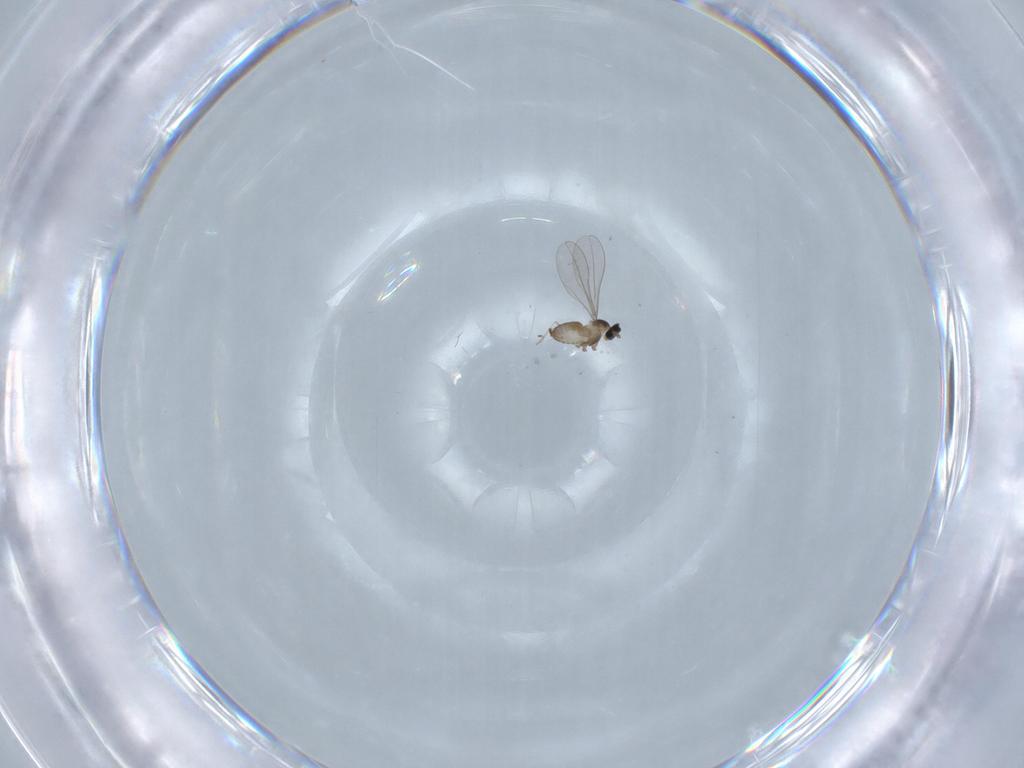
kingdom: Animalia
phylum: Arthropoda
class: Insecta
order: Diptera
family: Cecidomyiidae
